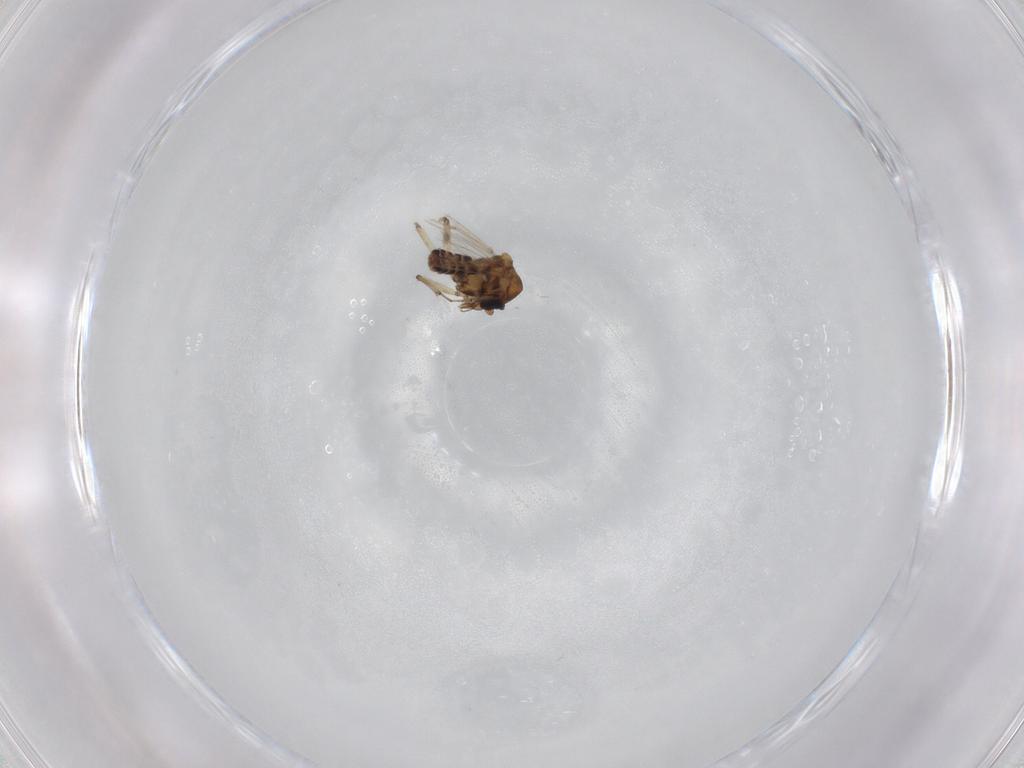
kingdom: Animalia
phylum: Arthropoda
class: Insecta
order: Diptera
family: Ceratopogonidae
